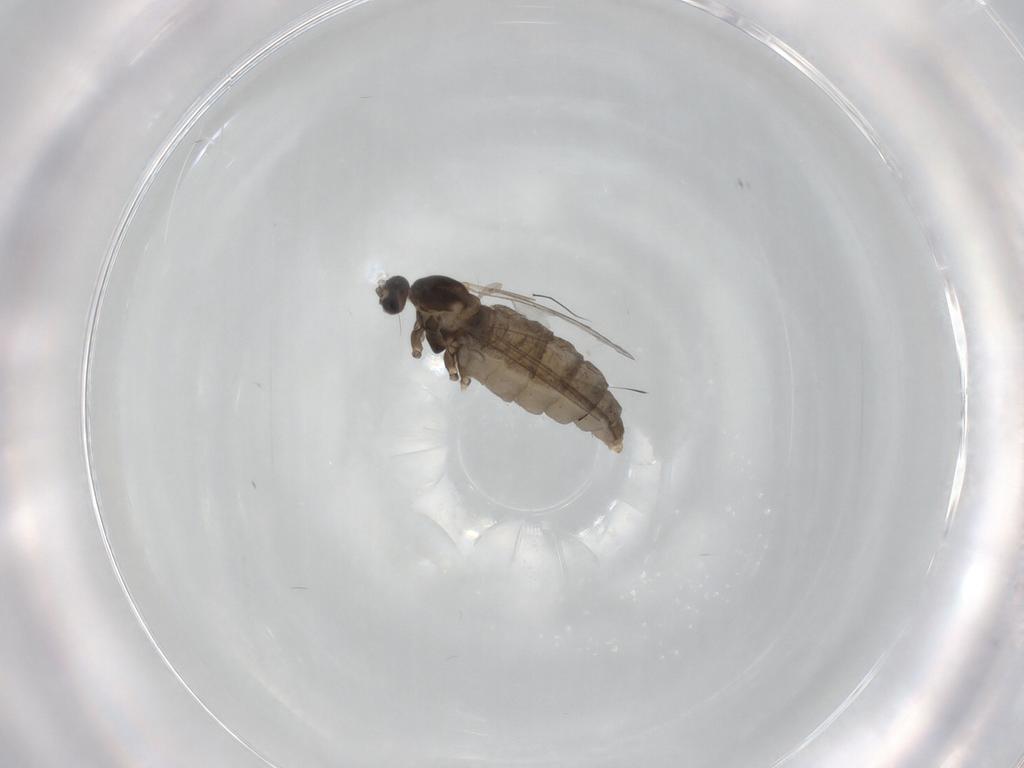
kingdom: Animalia
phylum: Arthropoda
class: Insecta
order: Diptera
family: Cecidomyiidae
